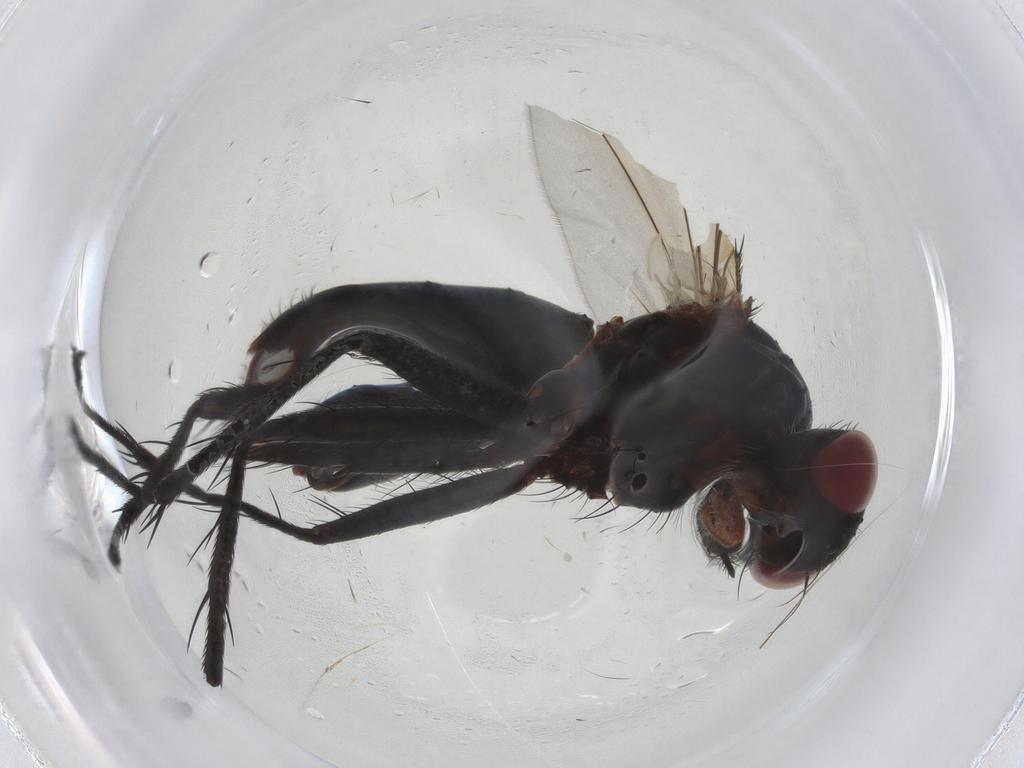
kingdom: Animalia
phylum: Arthropoda
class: Insecta
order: Diptera
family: Tachinidae
